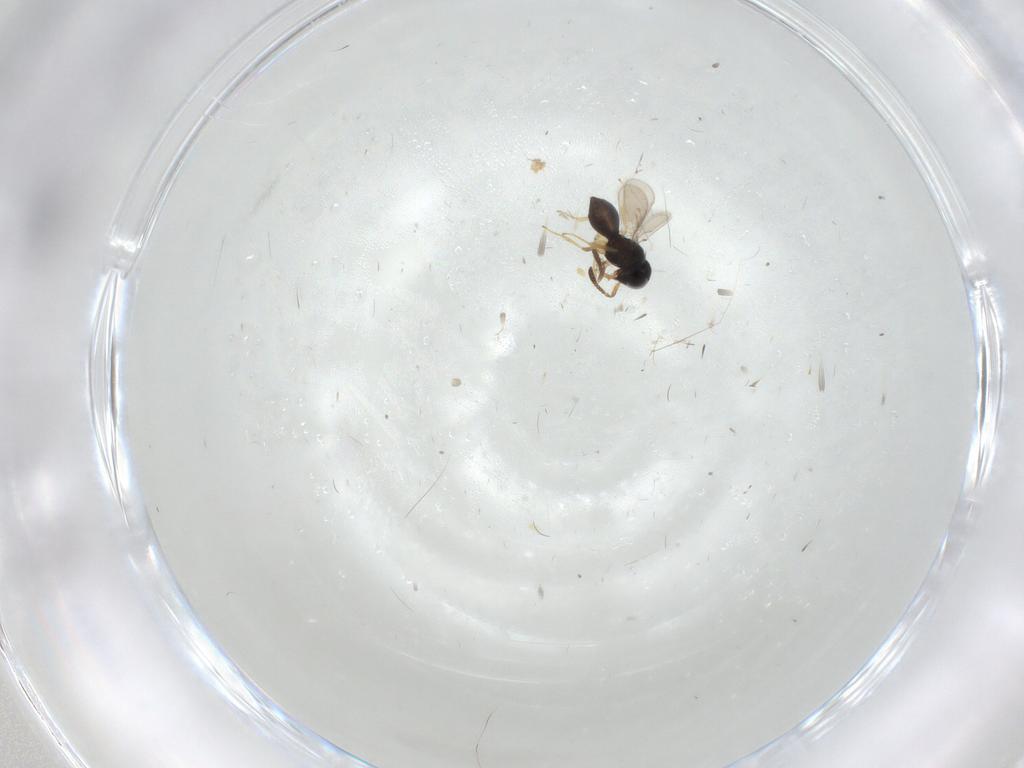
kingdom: Animalia
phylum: Arthropoda
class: Insecta
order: Hymenoptera
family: Scelionidae
